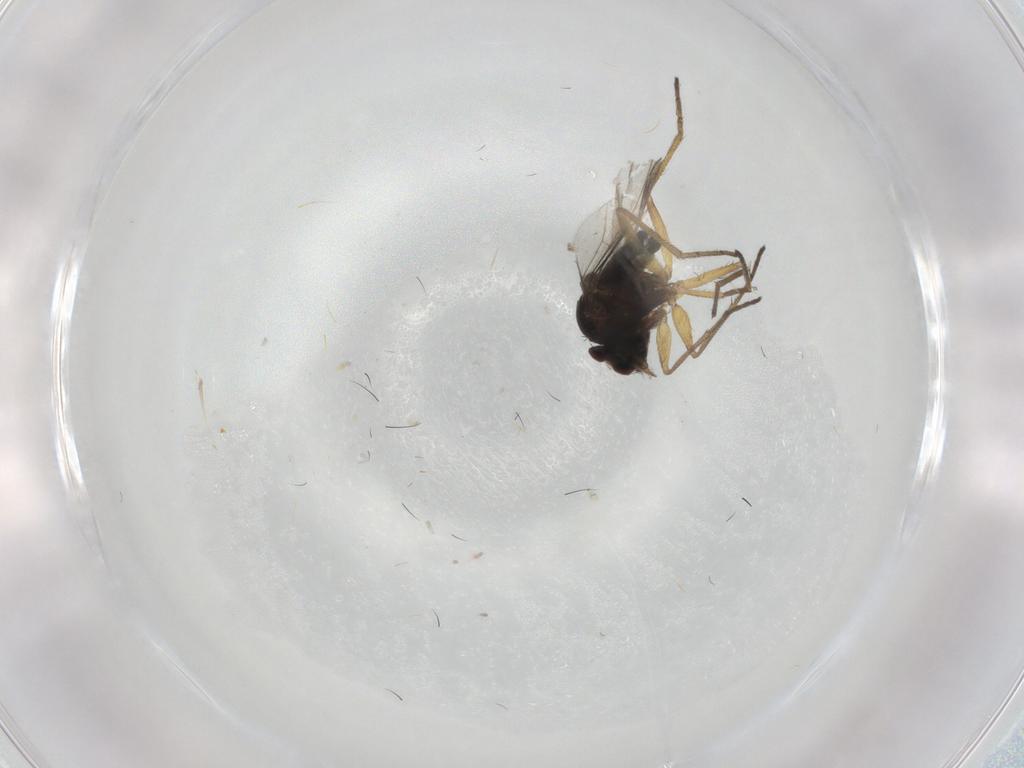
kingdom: Animalia
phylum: Arthropoda
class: Insecta
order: Diptera
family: Dolichopodidae
